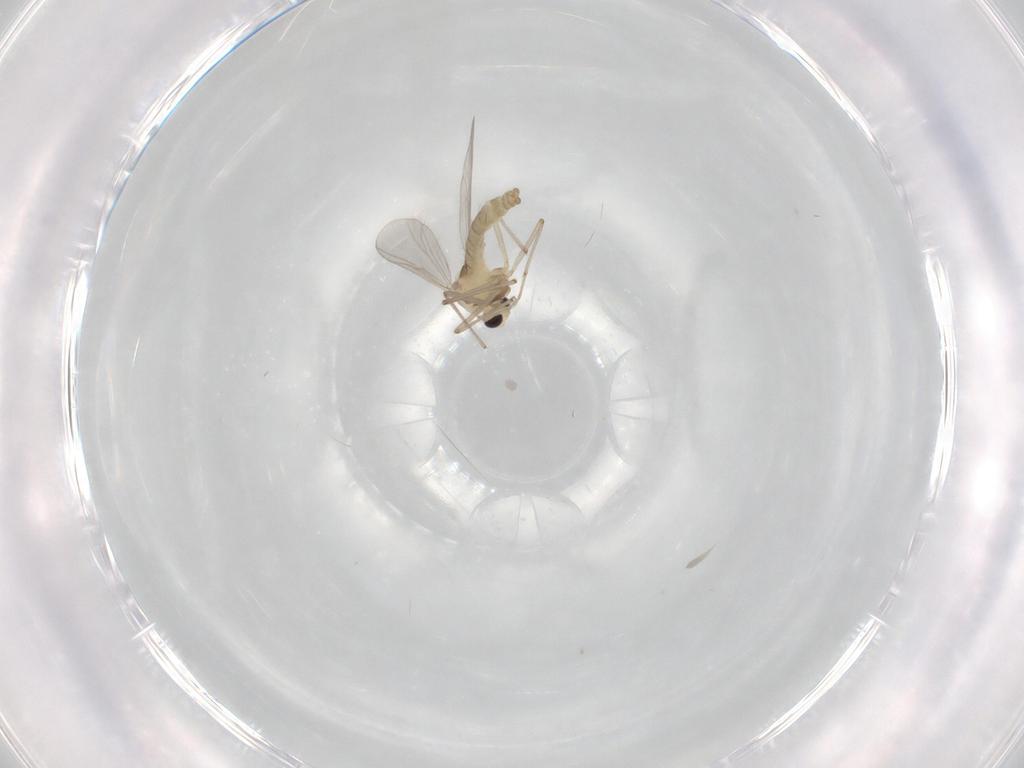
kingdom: Animalia
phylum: Arthropoda
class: Insecta
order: Diptera
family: Chironomidae
